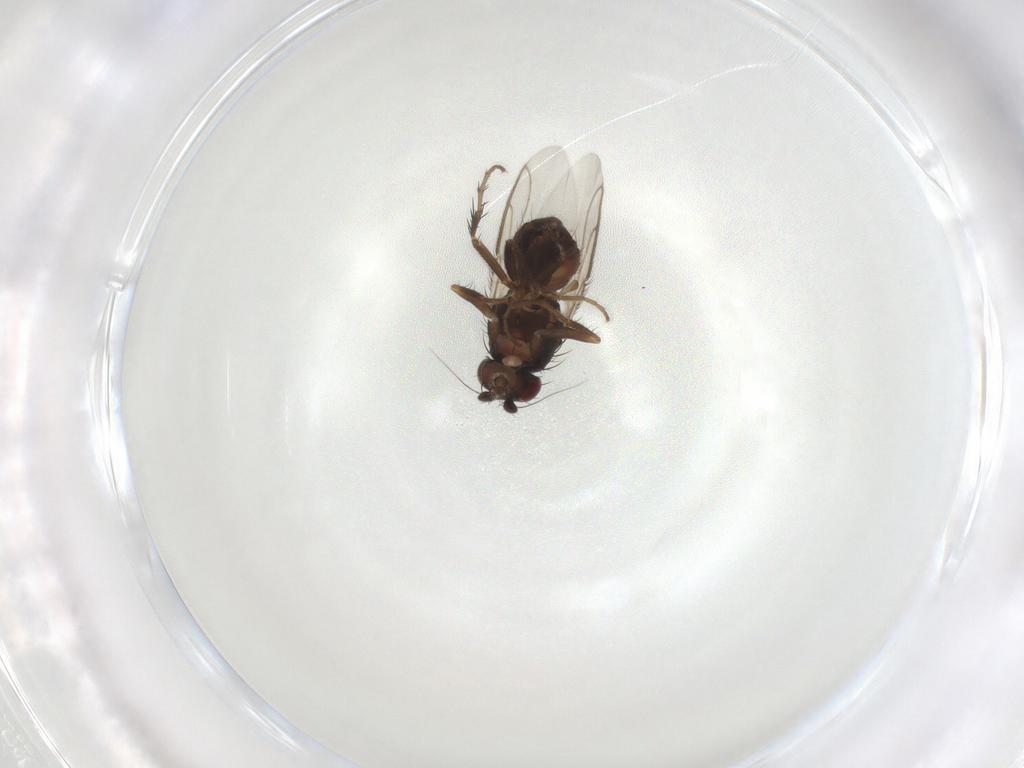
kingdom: Animalia
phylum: Arthropoda
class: Insecta
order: Diptera
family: Sphaeroceridae
